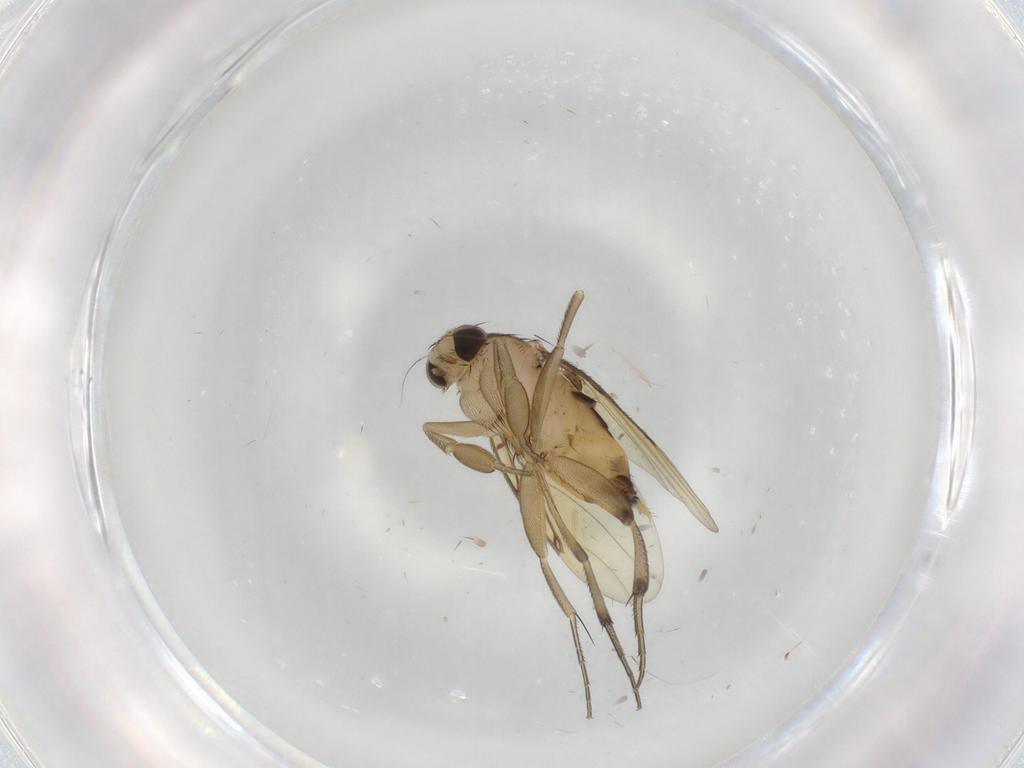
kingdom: Animalia
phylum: Arthropoda
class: Insecta
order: Diptera
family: Phoridae
